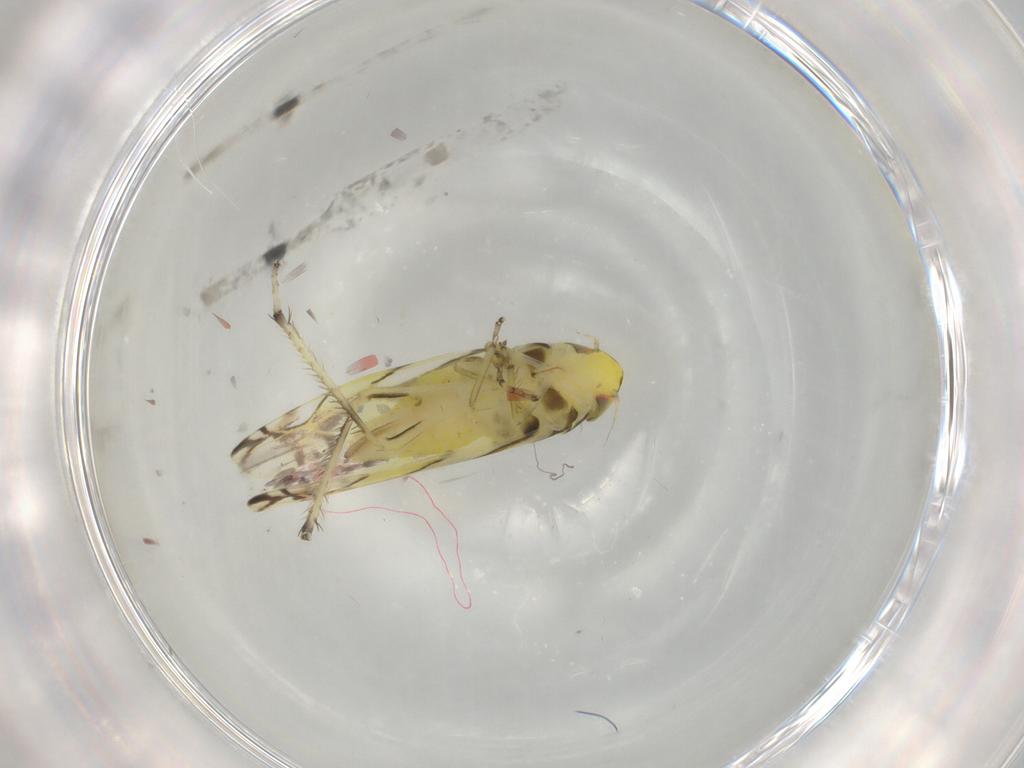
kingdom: Animalia
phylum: Arthropoda
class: Insecta
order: Hemiptera
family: Cicadellidae
